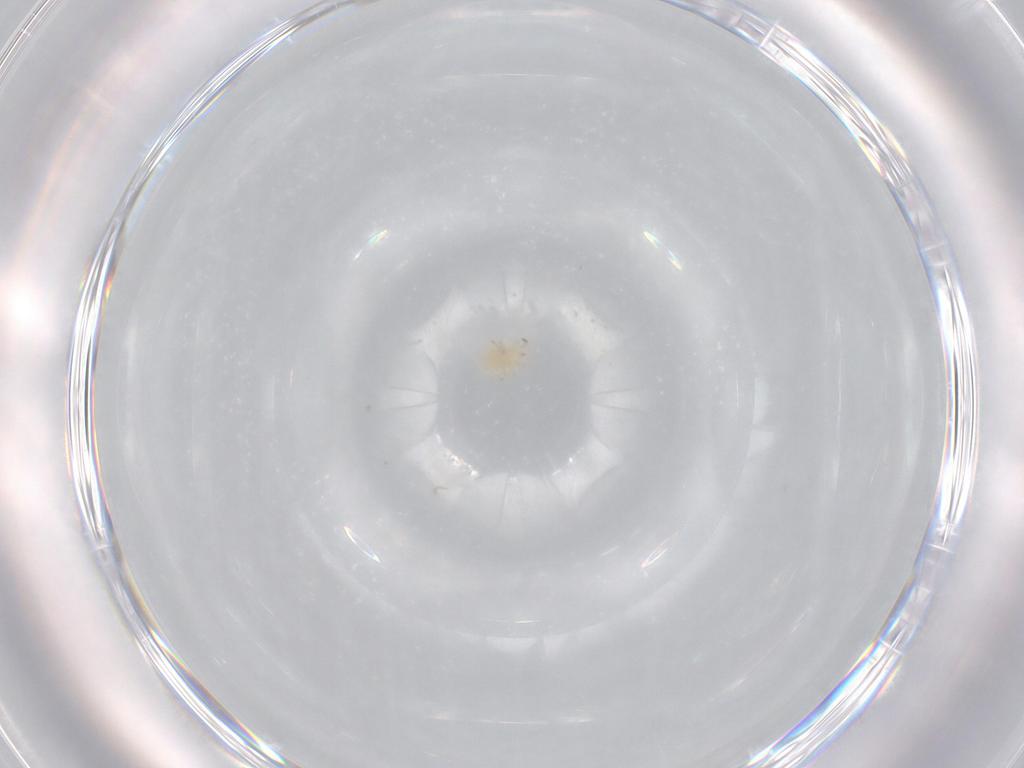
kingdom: Animalia
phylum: Arthropoda
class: Arachnida
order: Mesostigmata
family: Phytoseiidae
